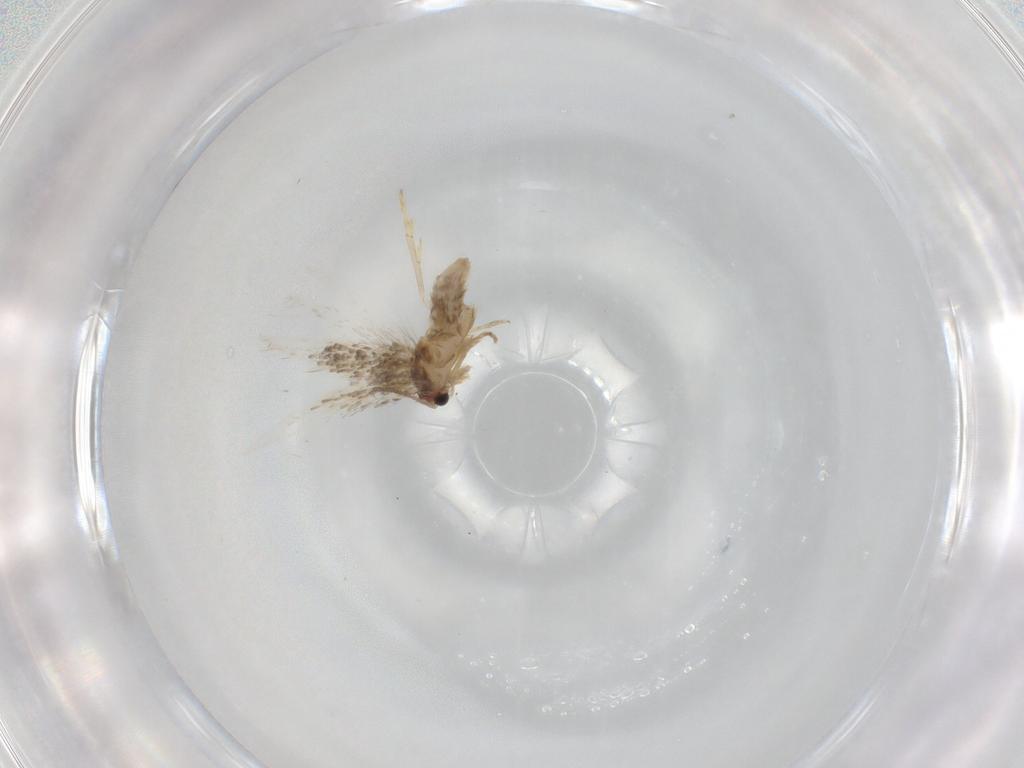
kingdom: Animalia
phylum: Arthropoda
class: Insecta
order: Lepidoptera
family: Nepticulidae
